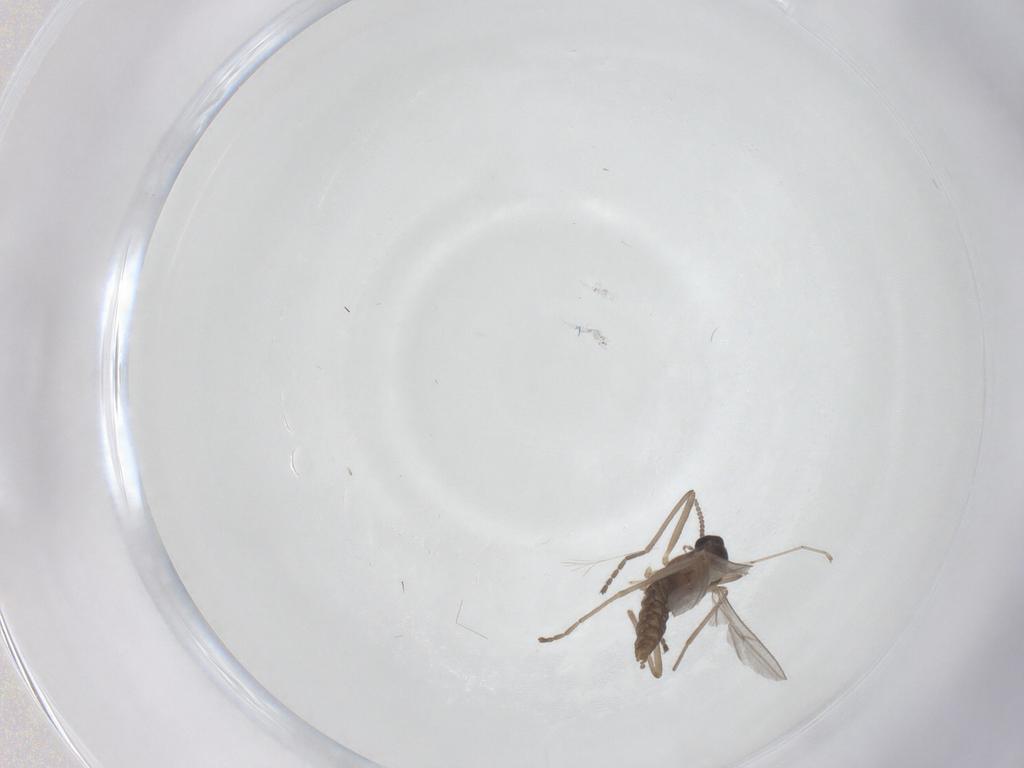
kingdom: Animalia
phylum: Arthropoda
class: Insecta
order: Diptera
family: Cecidomyiidae
